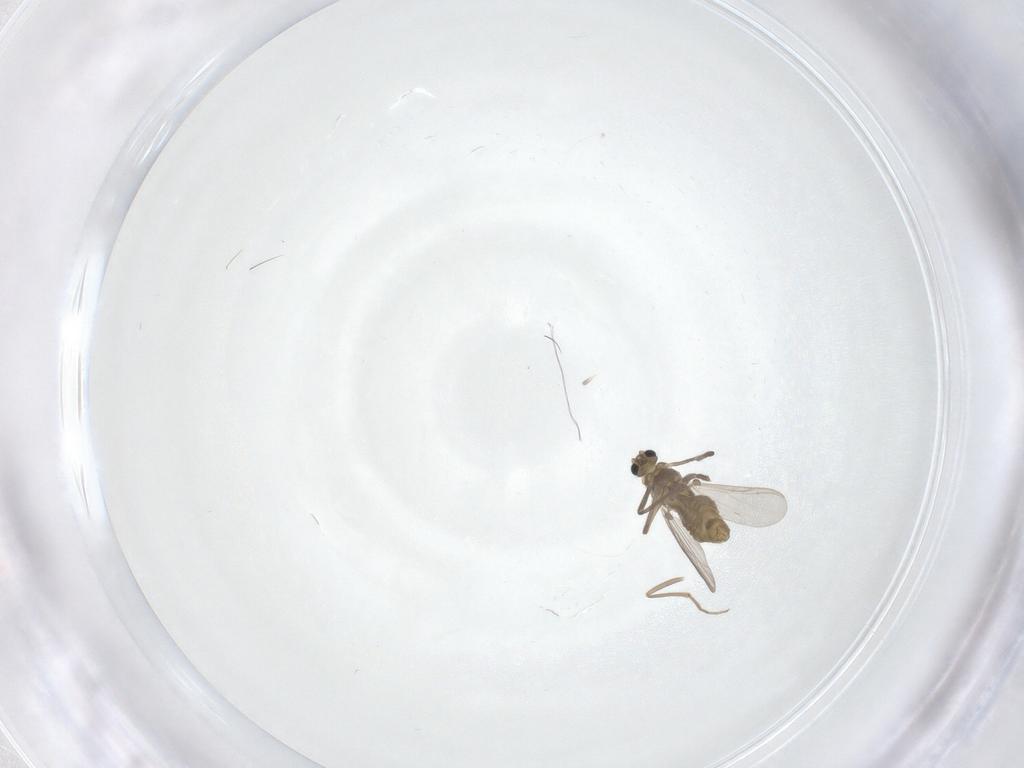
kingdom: Animalia
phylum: Arthropoda
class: Insecta
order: Diptera
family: Chironomidae
